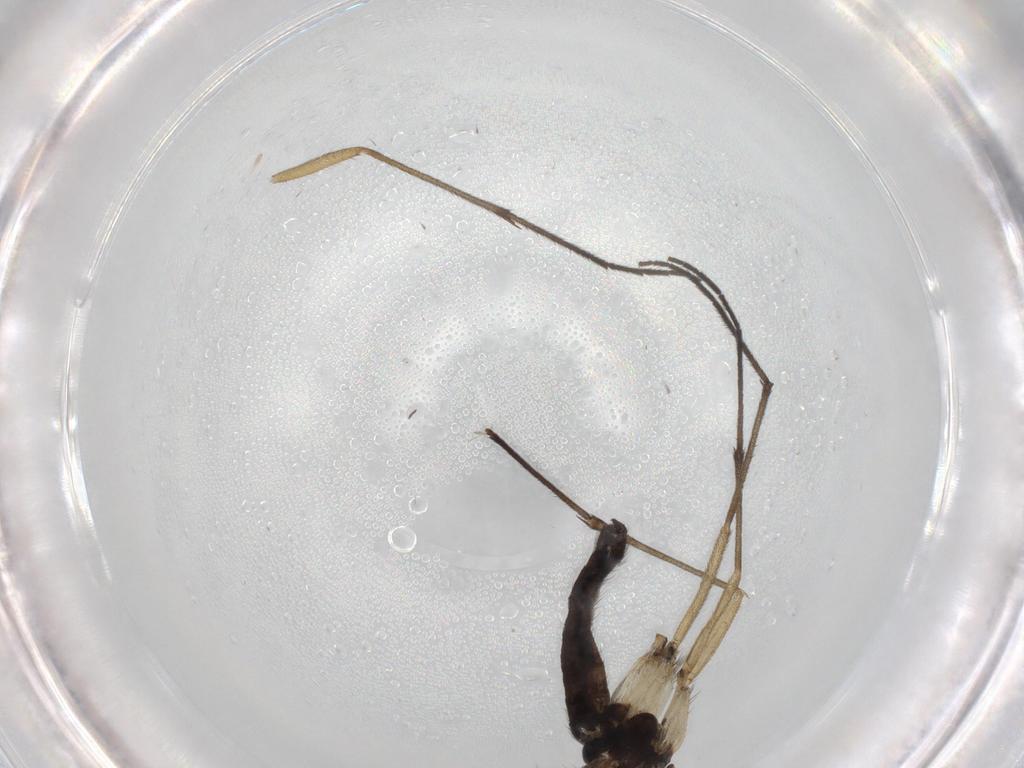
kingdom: Animalia
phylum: Arthropoda
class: Insecta
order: Diptera
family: Sciaridae
